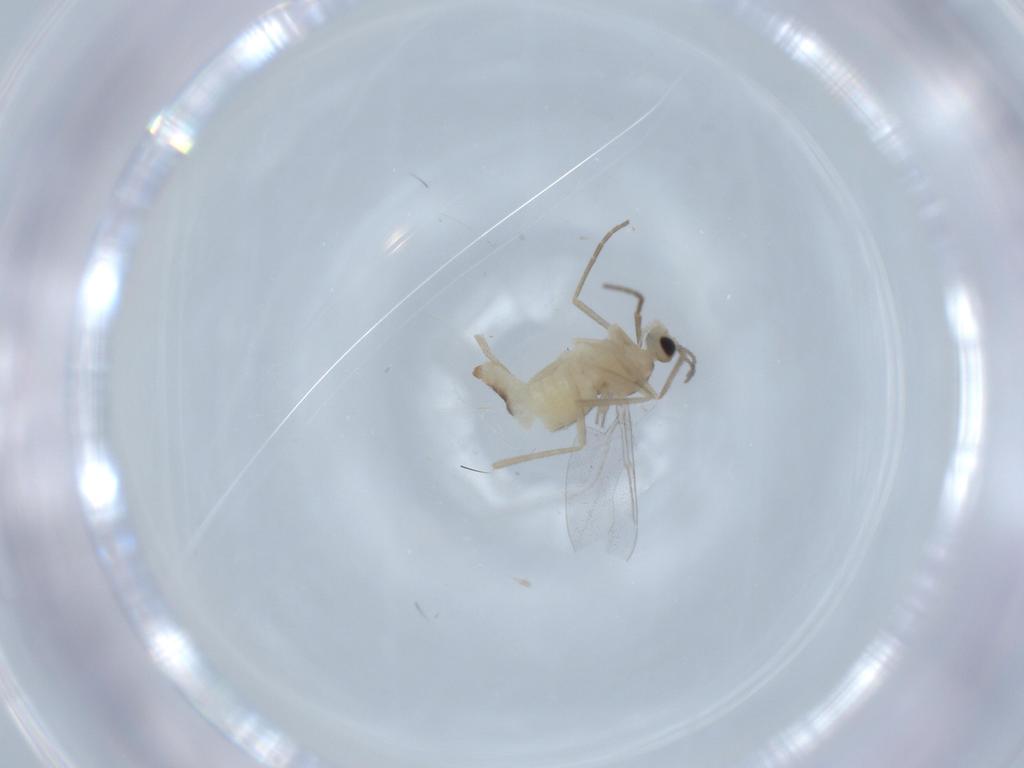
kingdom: Animalia
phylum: Arthropoda
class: Insecta
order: Diptera
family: Cecidomyiidae
